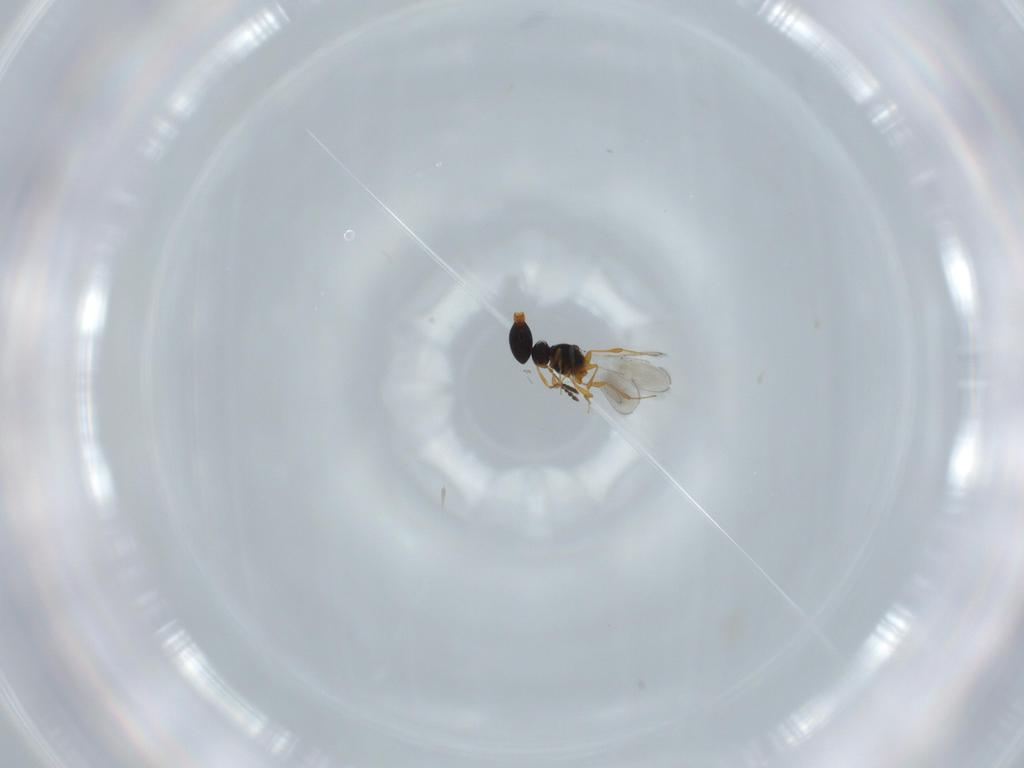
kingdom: Animalia
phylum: Arthropoda
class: Insecta
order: Hymenoptera
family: Platygastridae
